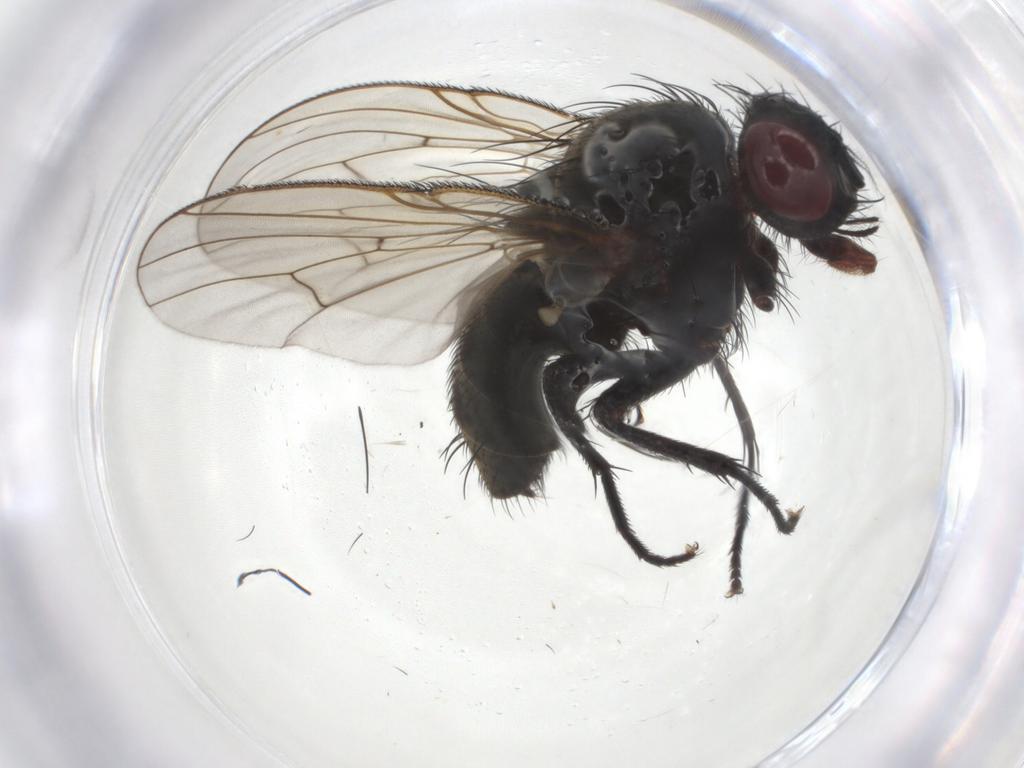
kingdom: Animalia
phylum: Arthropoda
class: Insecta
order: Diptera
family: Muscidae
